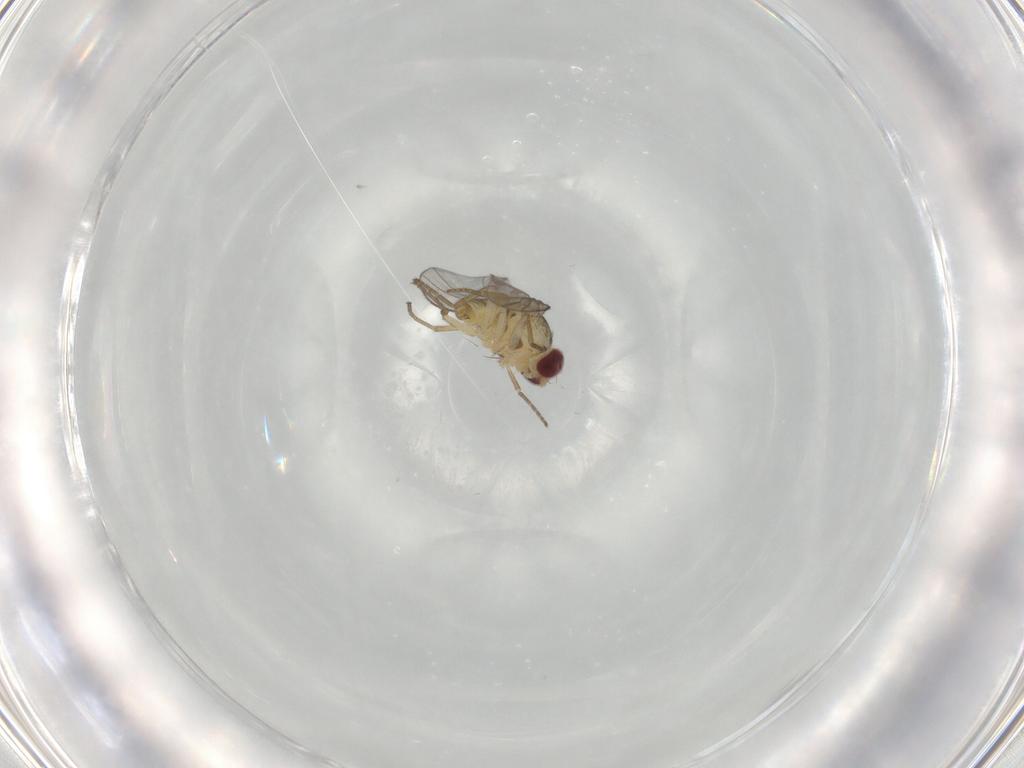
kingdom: Animalia
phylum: Arthropoda
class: Insecta
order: Diptera
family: Agromyzidae
